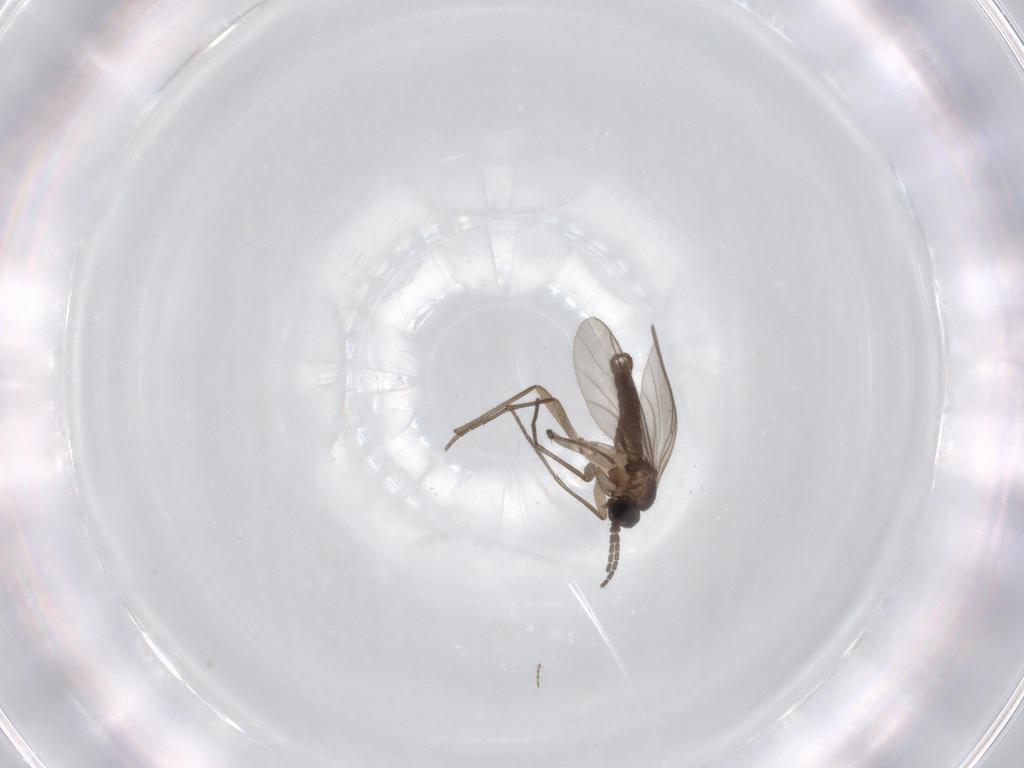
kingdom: Animalia
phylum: Arthropoda
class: Insecta
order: Diptera
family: Sciaridae
